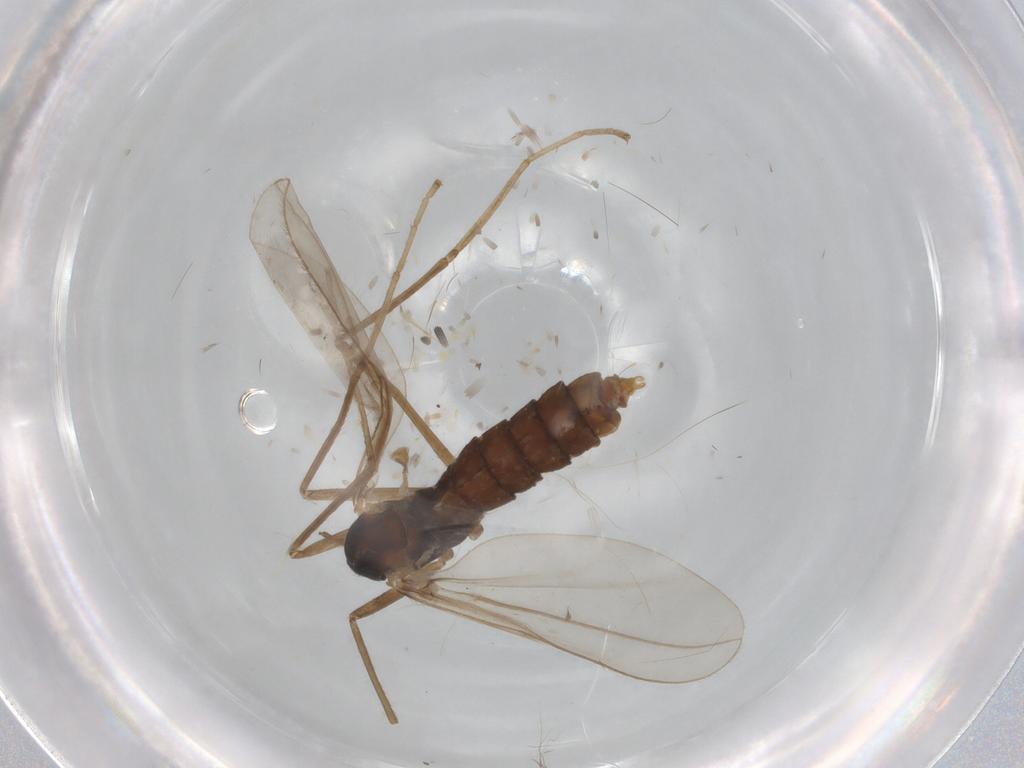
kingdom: Animalia
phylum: Arthropoda
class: Insecta
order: Diptera
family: Cecidomyiidae
